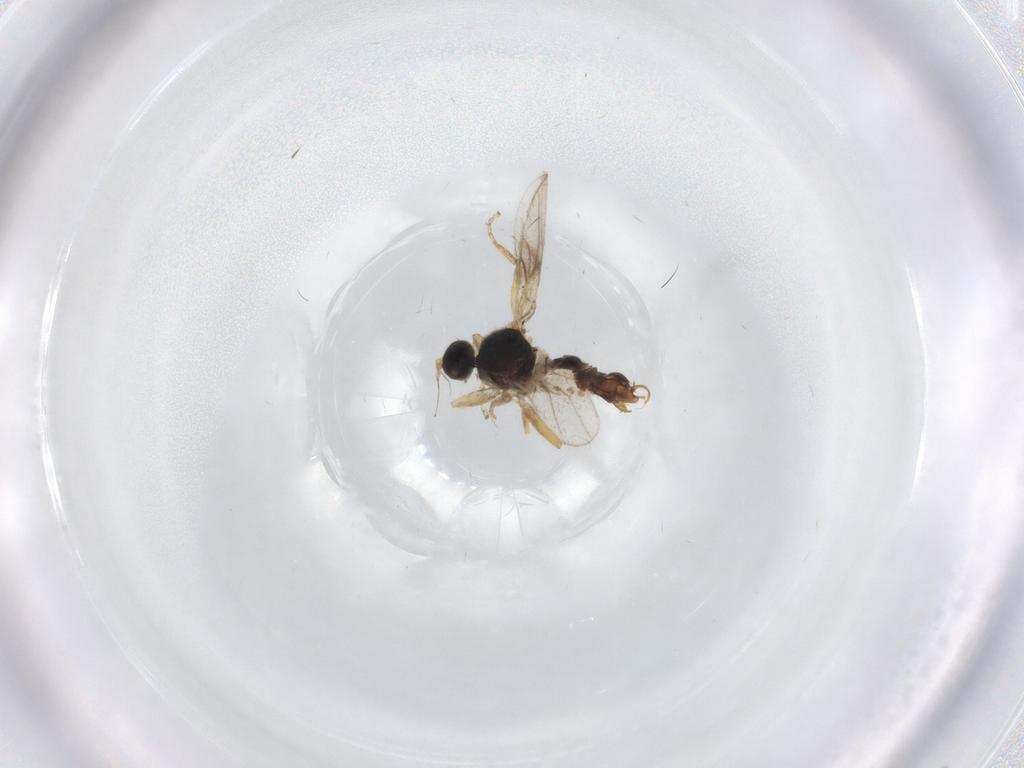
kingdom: Animalia
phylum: Arthropoda
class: Insecta
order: Diptera
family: Hybotidae
